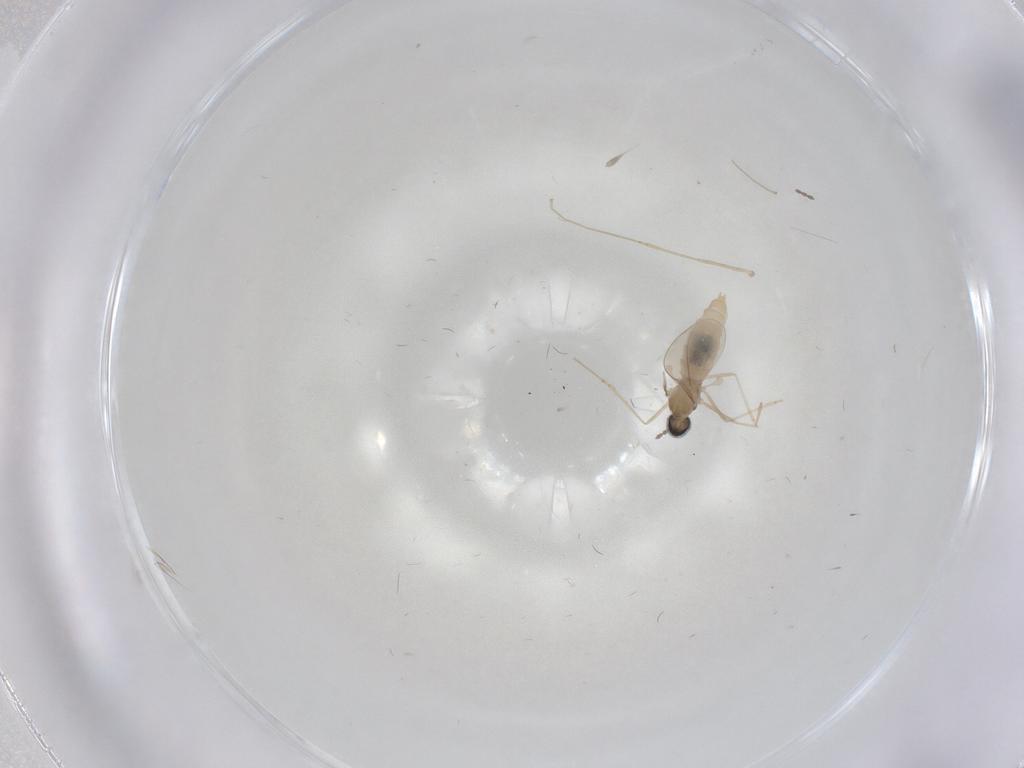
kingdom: Animalia
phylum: Arthropoda
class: Insecta
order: Diptera
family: Cecidomyiidae
